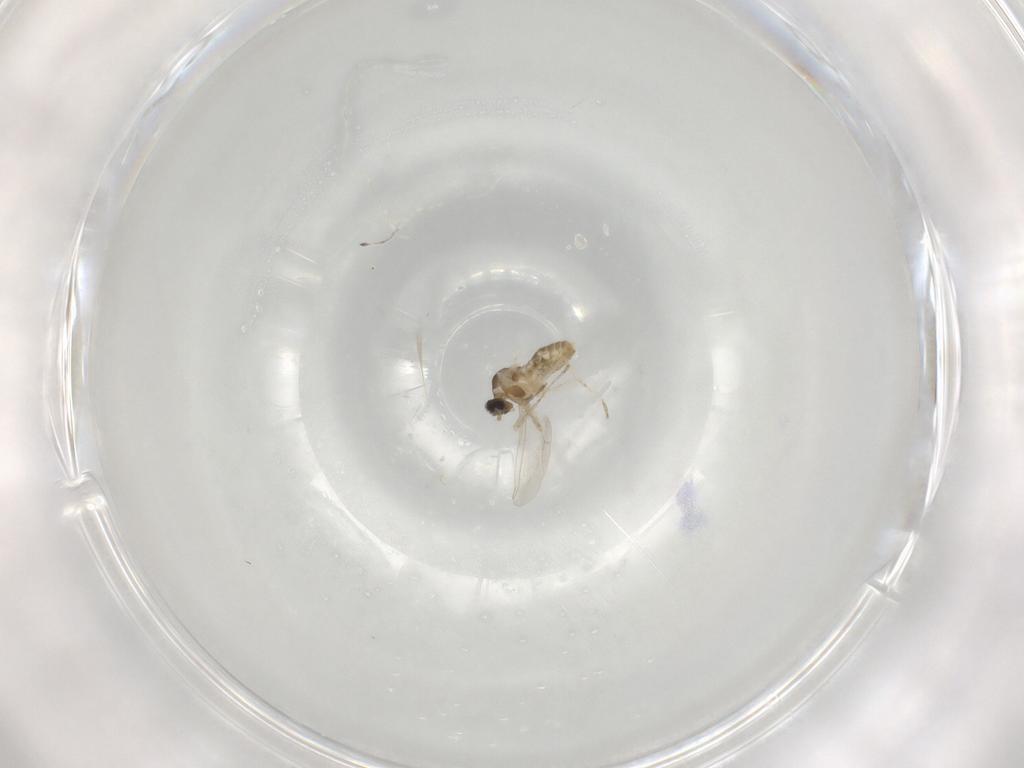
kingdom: Animalia
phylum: Arthropoda
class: Insecta
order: Diptera
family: Cecidomyiidae
